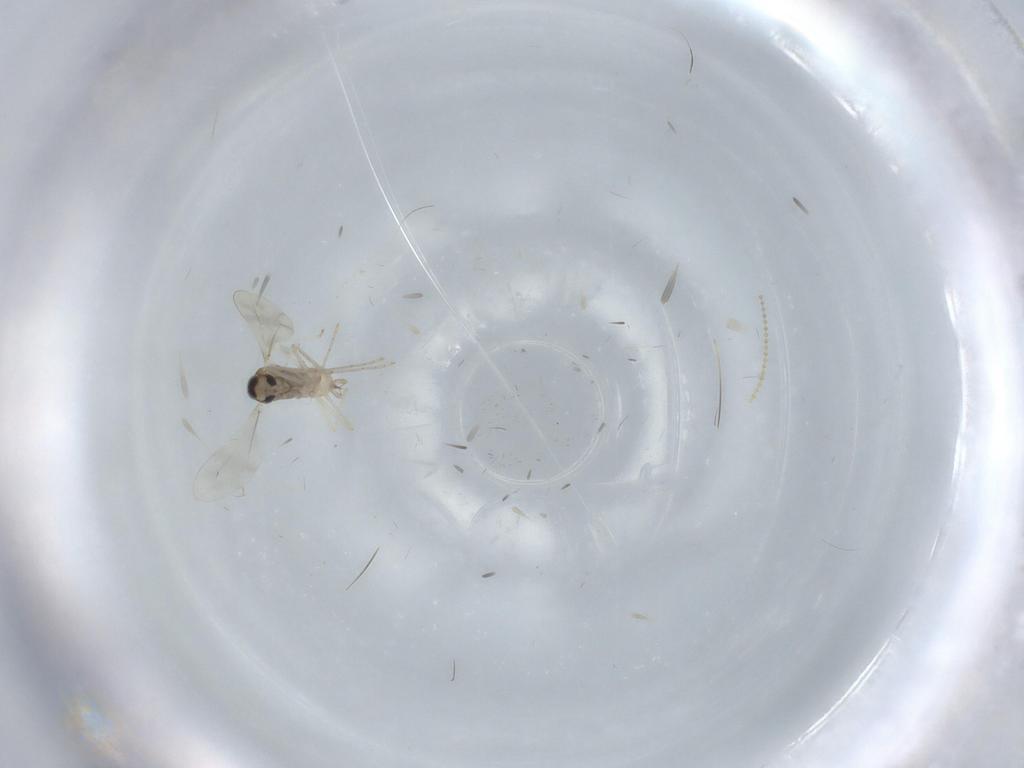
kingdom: Animalia
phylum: Arthropoda
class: Insecta
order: Diptera
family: Cecidomyiidae
